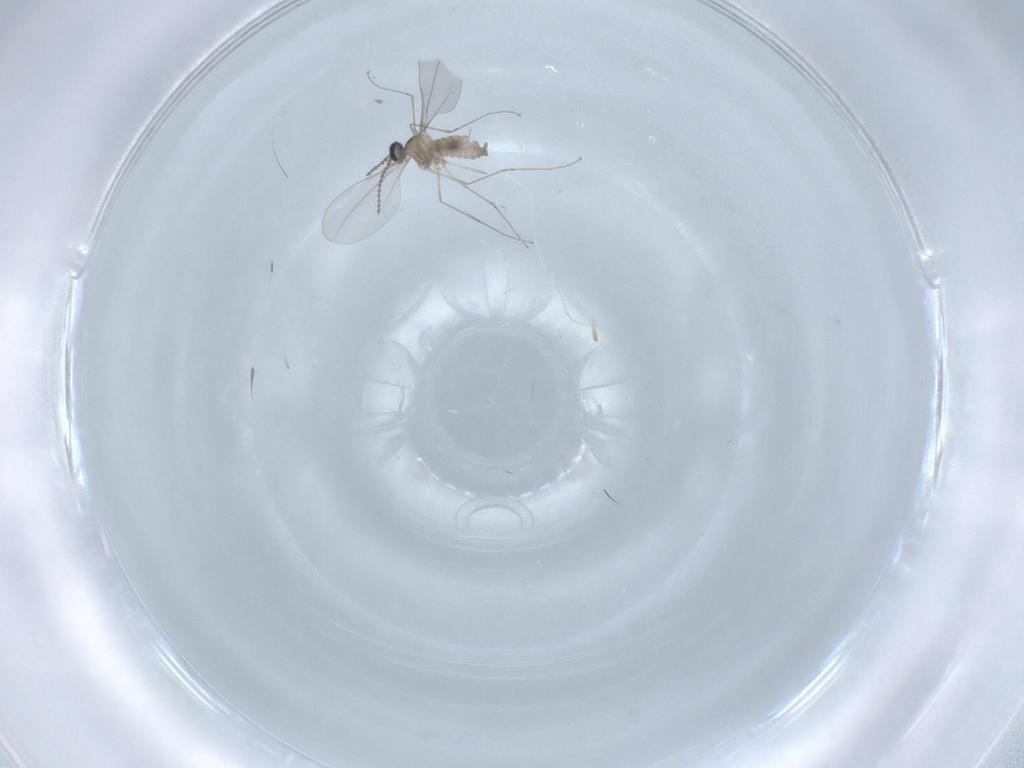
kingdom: Animalia
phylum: Arthropoda
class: Insecta
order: Diptera
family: Cecidomyiidae
